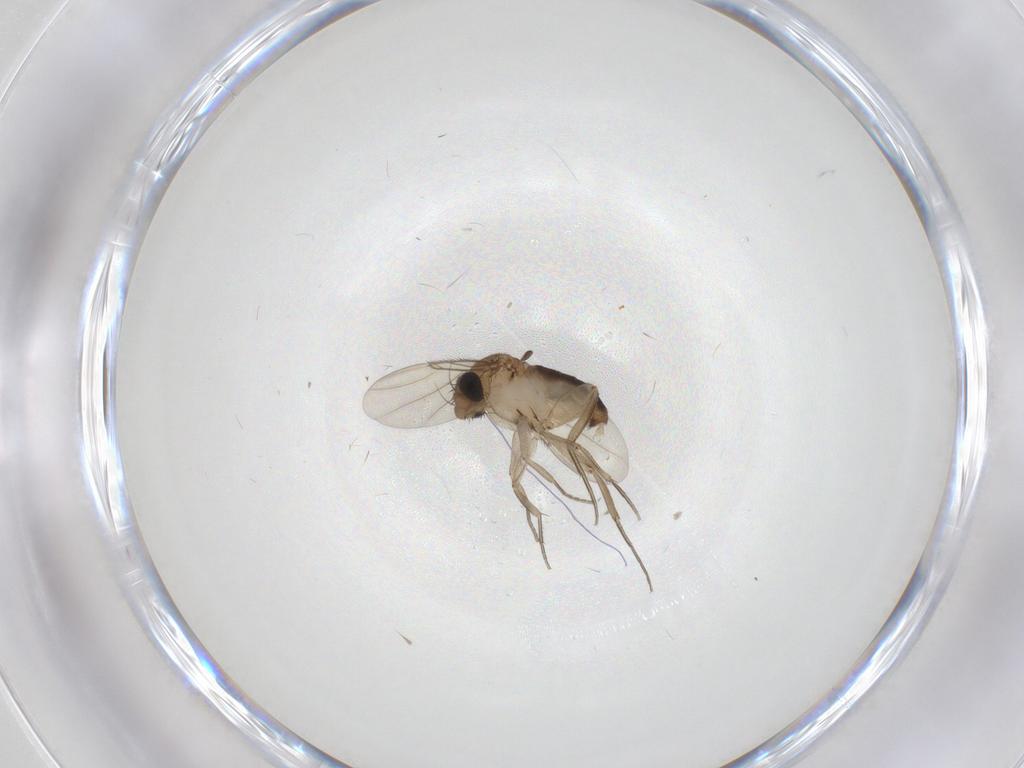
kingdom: Animalia
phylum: Arthropoda
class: Insecta
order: Diptera
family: Phoridae
